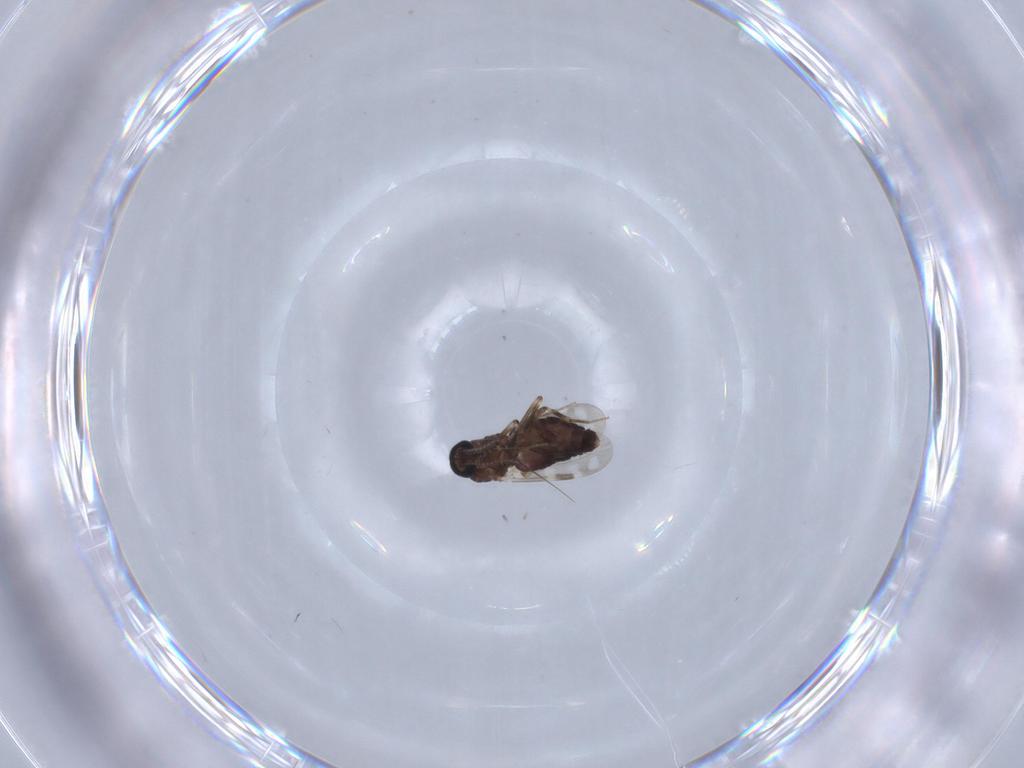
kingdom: Animalia
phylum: Arthropoda
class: Insecta
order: Diptera
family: Ceratopogonidae
